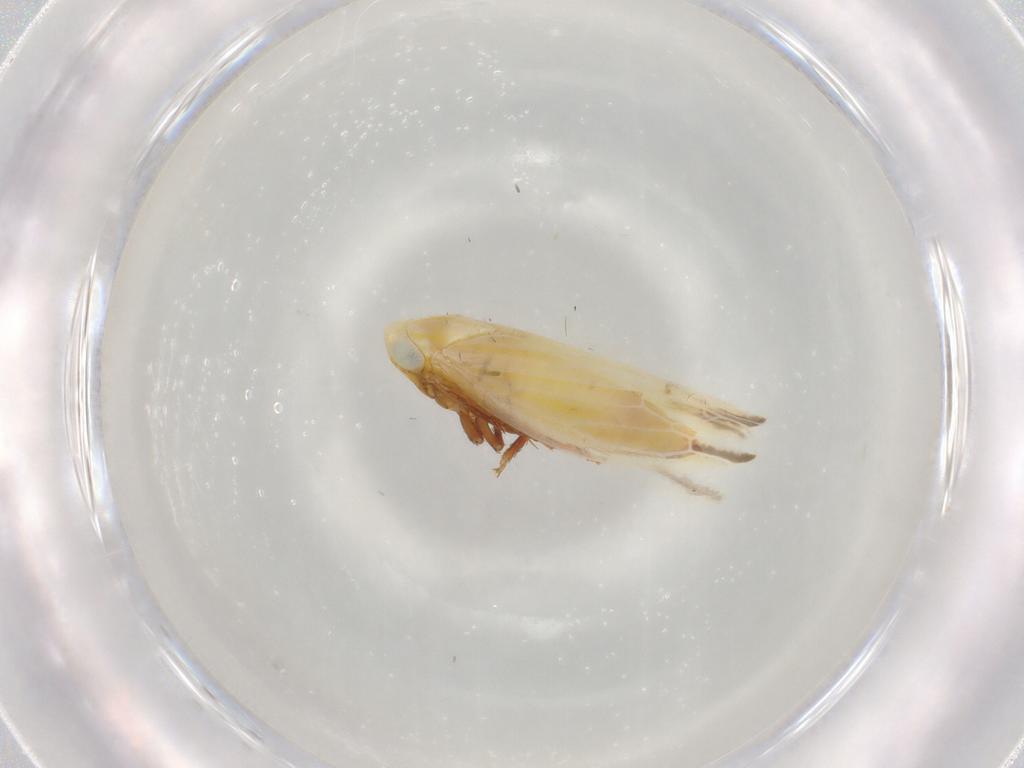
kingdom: Animalia
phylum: Arthropoda
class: Insecta
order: Hemiptera
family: Cicadellidae
